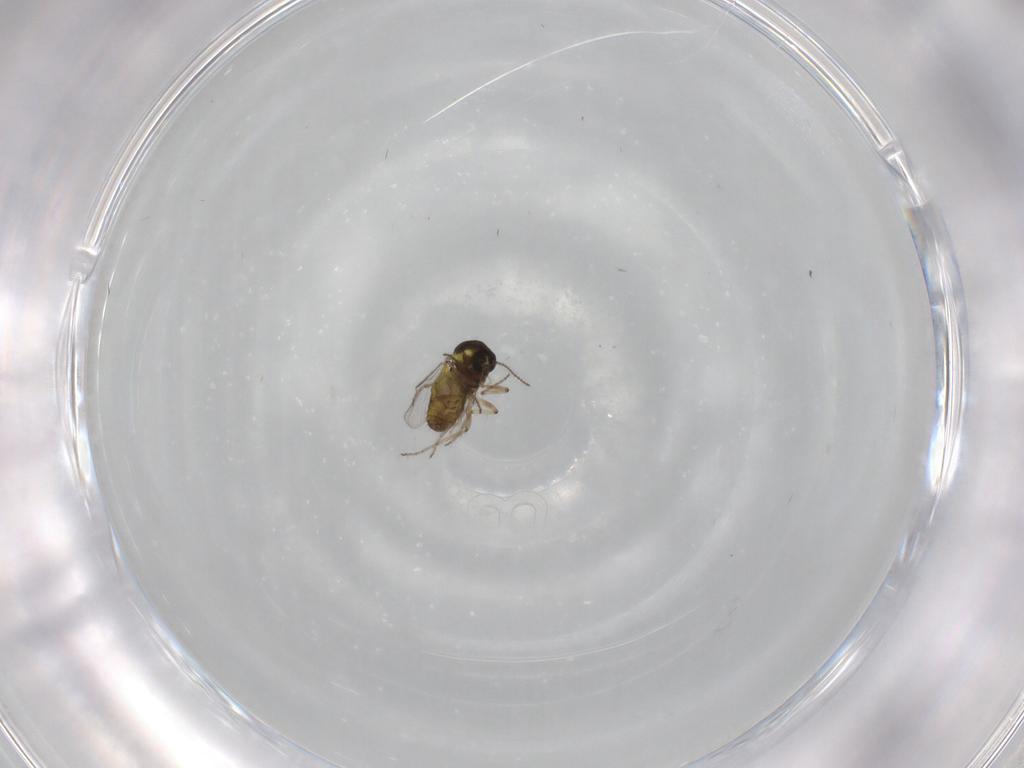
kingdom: Animalia
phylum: Arthropoda
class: Insecta
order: Diptera
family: Ceratopogonidae
